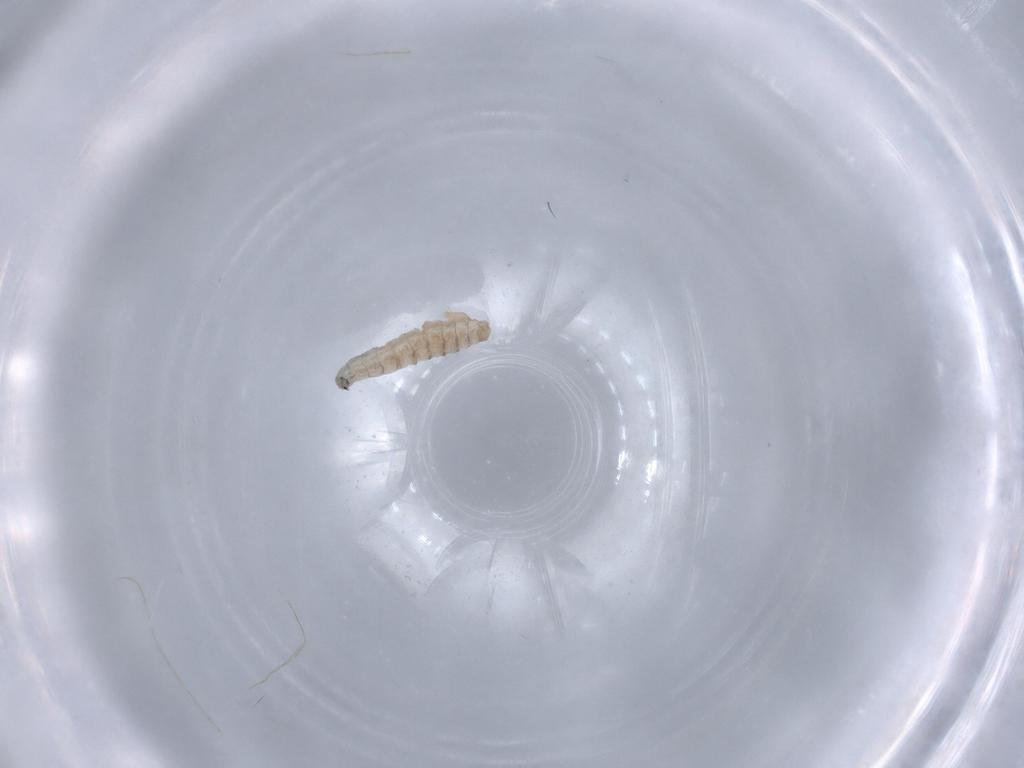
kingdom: Animalia
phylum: Arthropoda
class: Insecta
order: Diptera
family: Sarcophagidae
